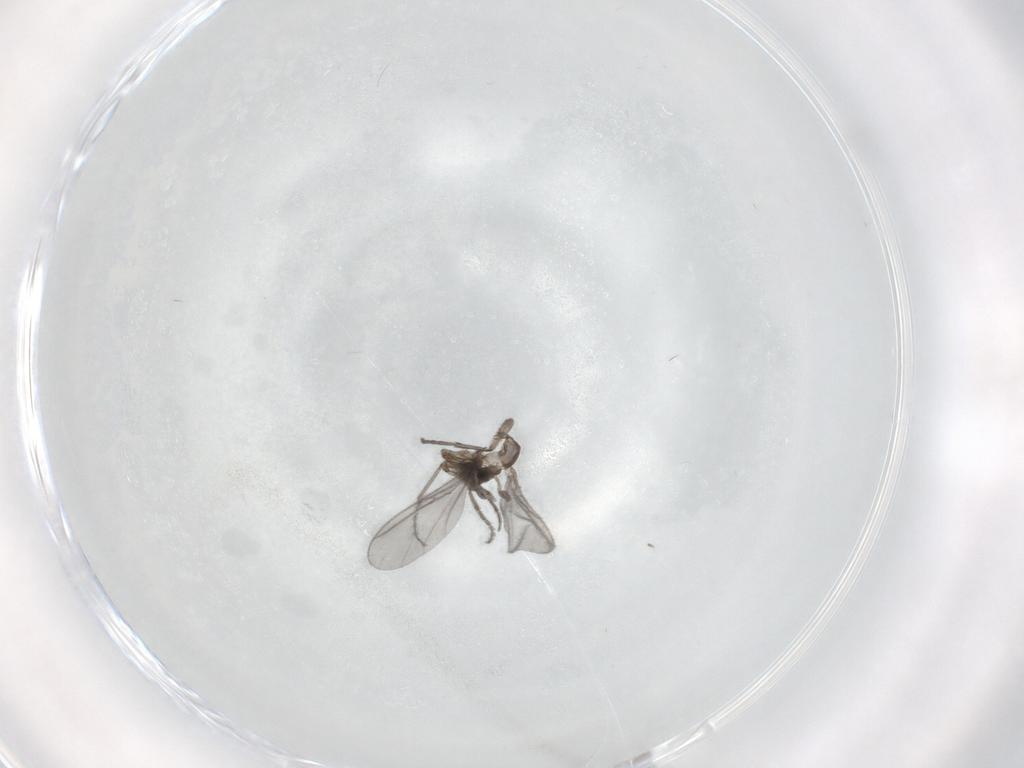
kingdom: Animalia
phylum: Arthropoda
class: Insecta
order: Diptera
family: Sciaridae
